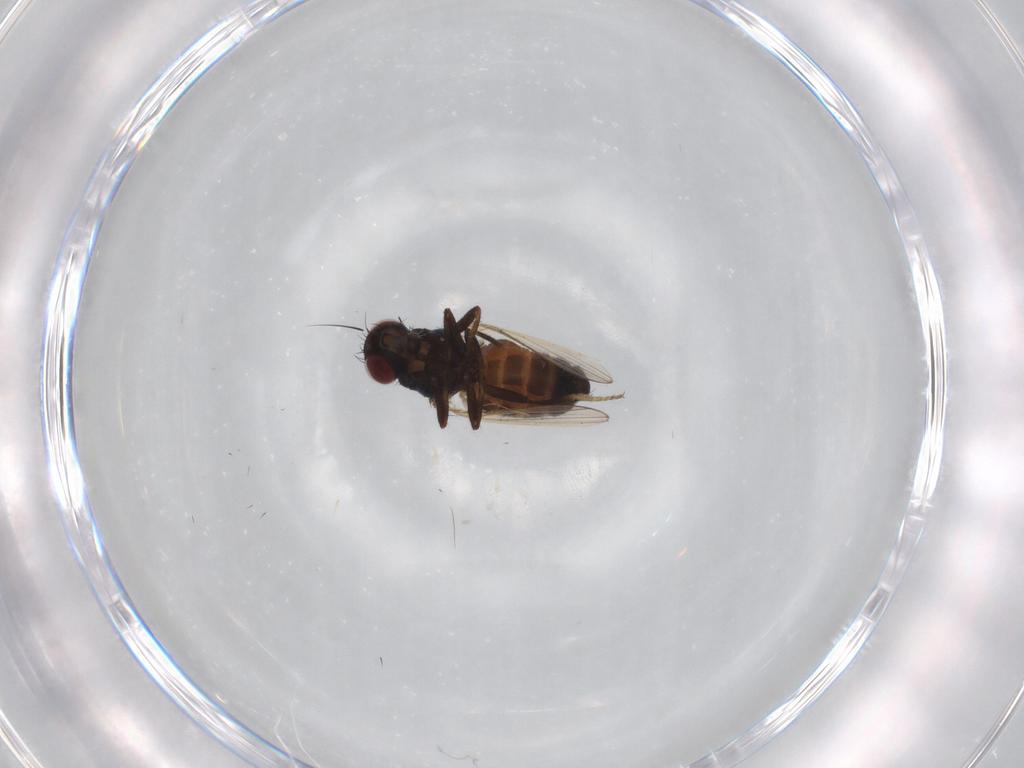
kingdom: Animalia
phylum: Arthropoda
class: Insecta
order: Diptera
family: Carnidae
